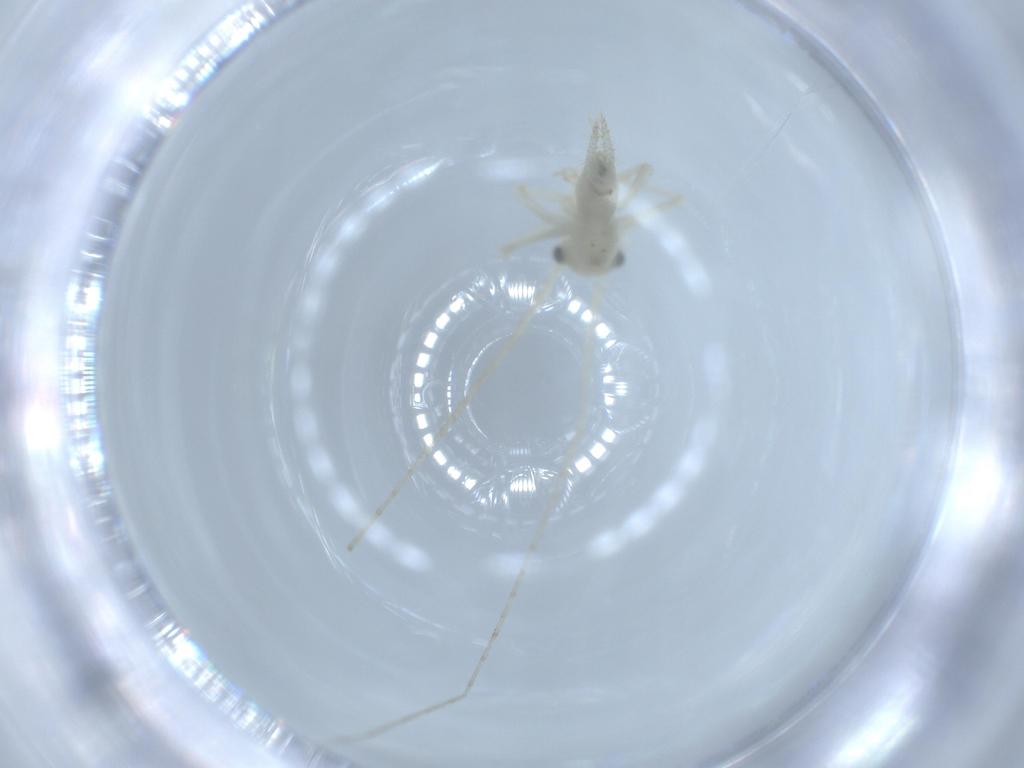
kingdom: Animalia
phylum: Arthropoda
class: Insecta
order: Orthoptera
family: Trigonidiidae
